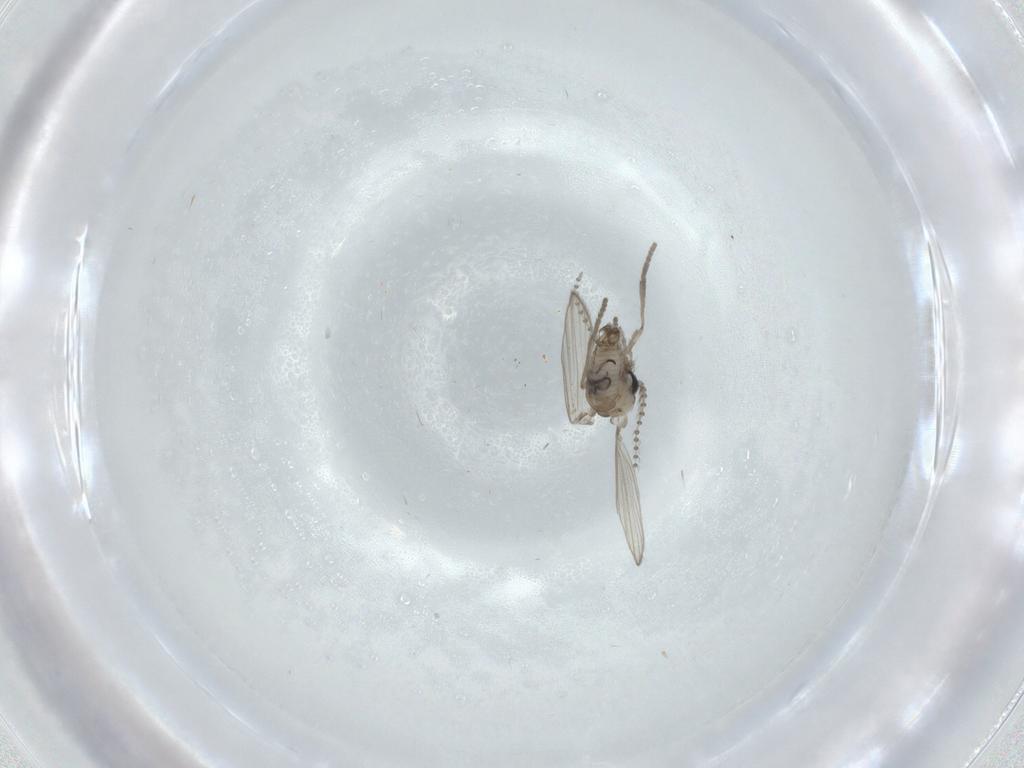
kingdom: Animalia
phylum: Arthropoda
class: Insecta
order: Diptera
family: Psychodidae
